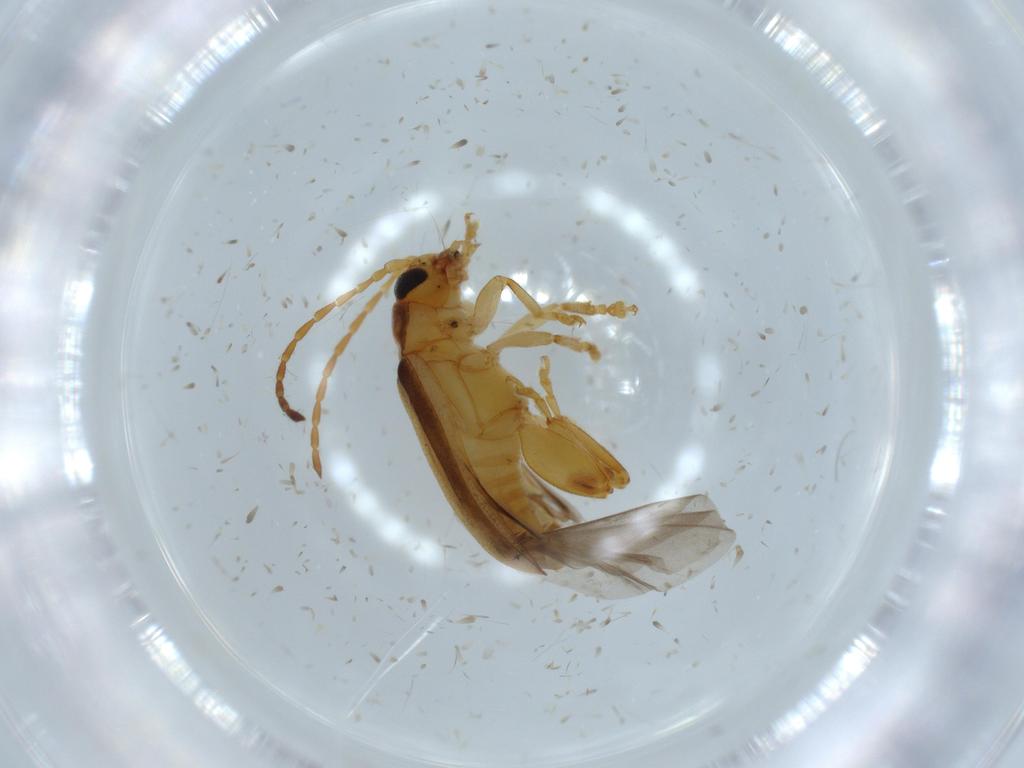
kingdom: Animalia
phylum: Arthropoda
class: Insecta
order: Coleoptera
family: Chrysomelidae
